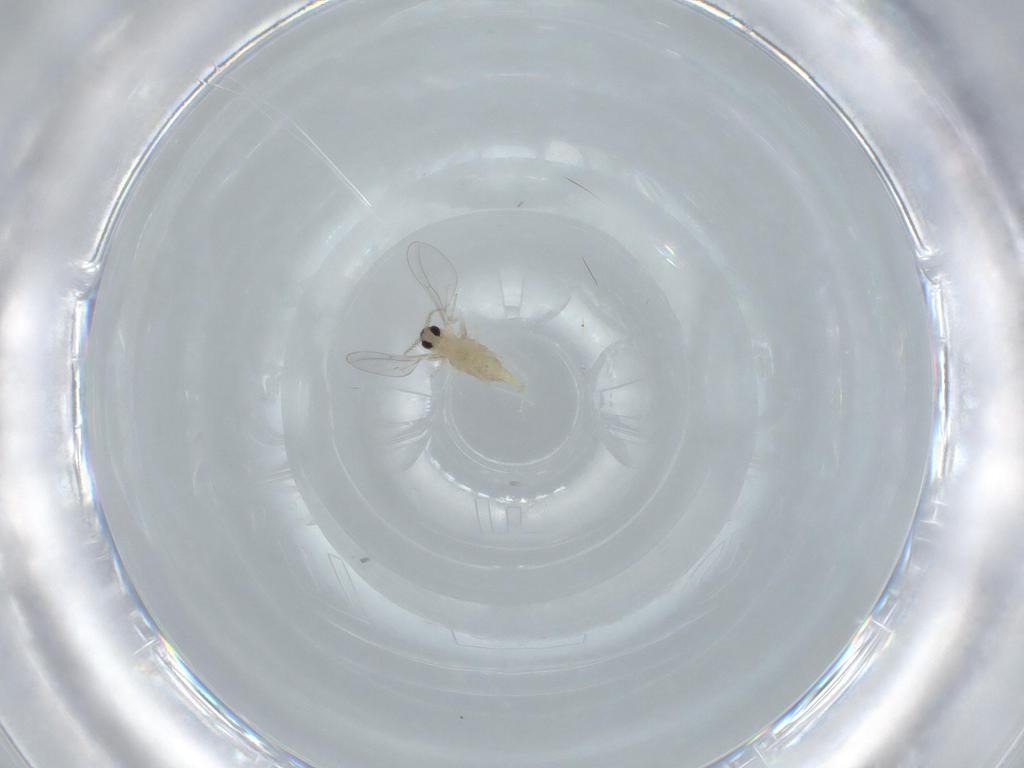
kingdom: Animalia
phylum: Arthropoda
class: Insecta
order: Diptera
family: Cecidomyiidae
